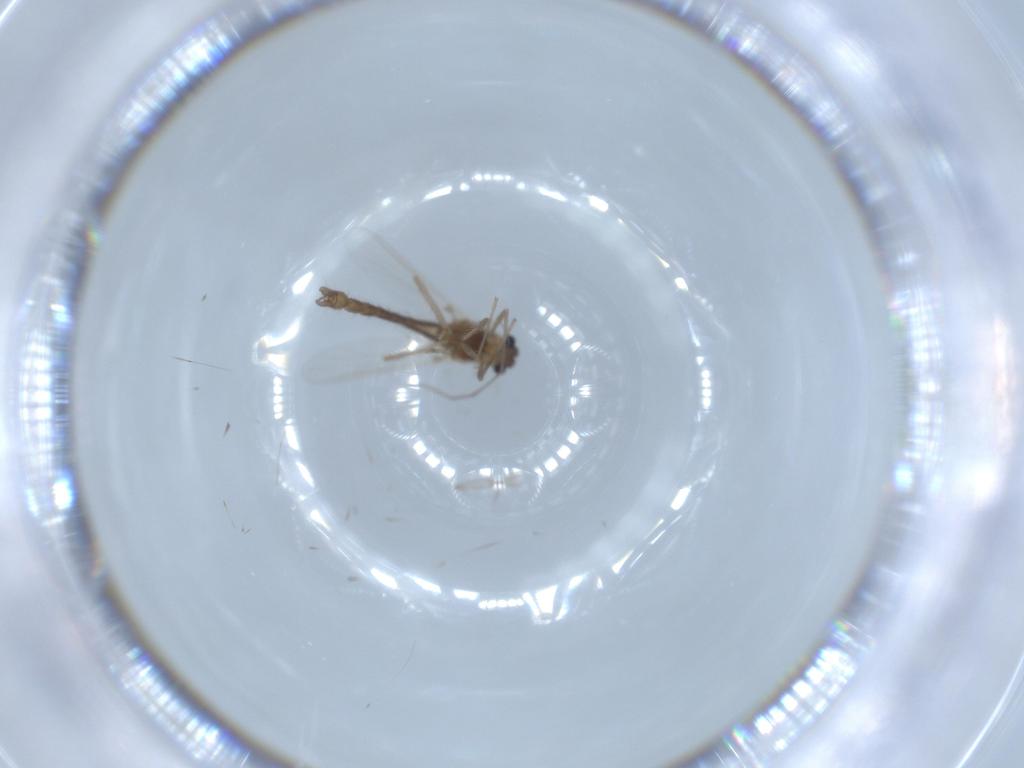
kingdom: Animalia
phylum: Arthropoda
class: Insecta
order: Diptera
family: Chironomidae
